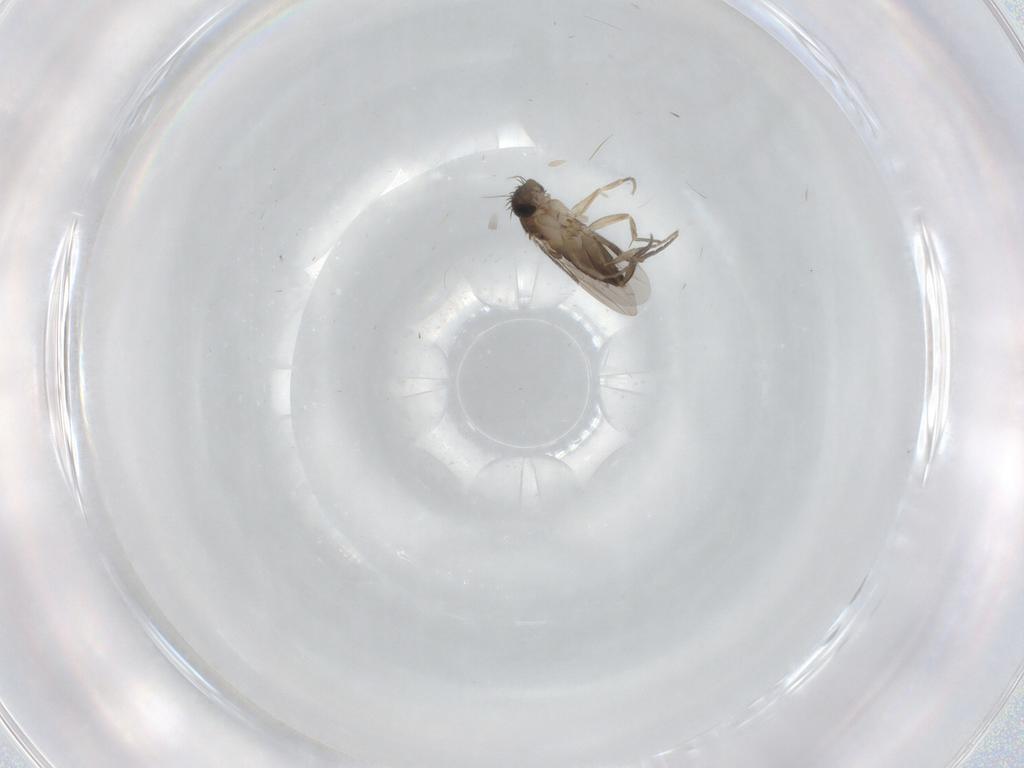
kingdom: Animalia
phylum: Arthropoda
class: Insecta
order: Diptera
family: Phoridae
